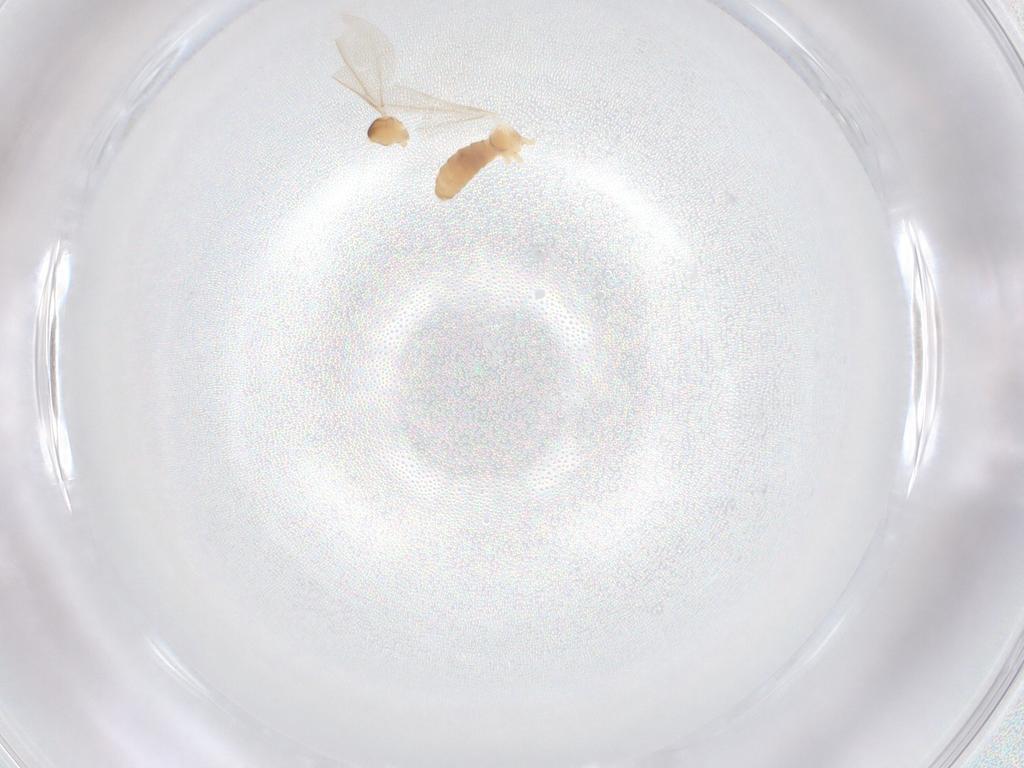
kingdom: Animalia
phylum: Arthropoda
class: Insecta
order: Diptera
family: Cecidomyiidae
